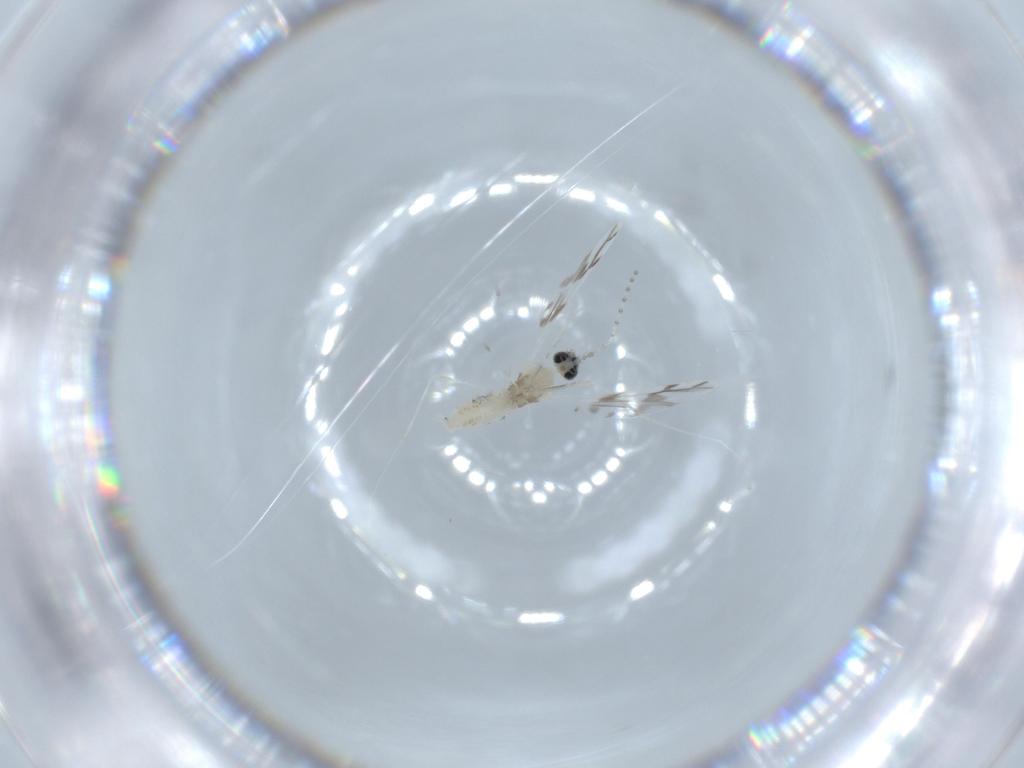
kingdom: Animalia
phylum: Arthropoda
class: Insecta
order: Diptera
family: Cecidomyiidae
